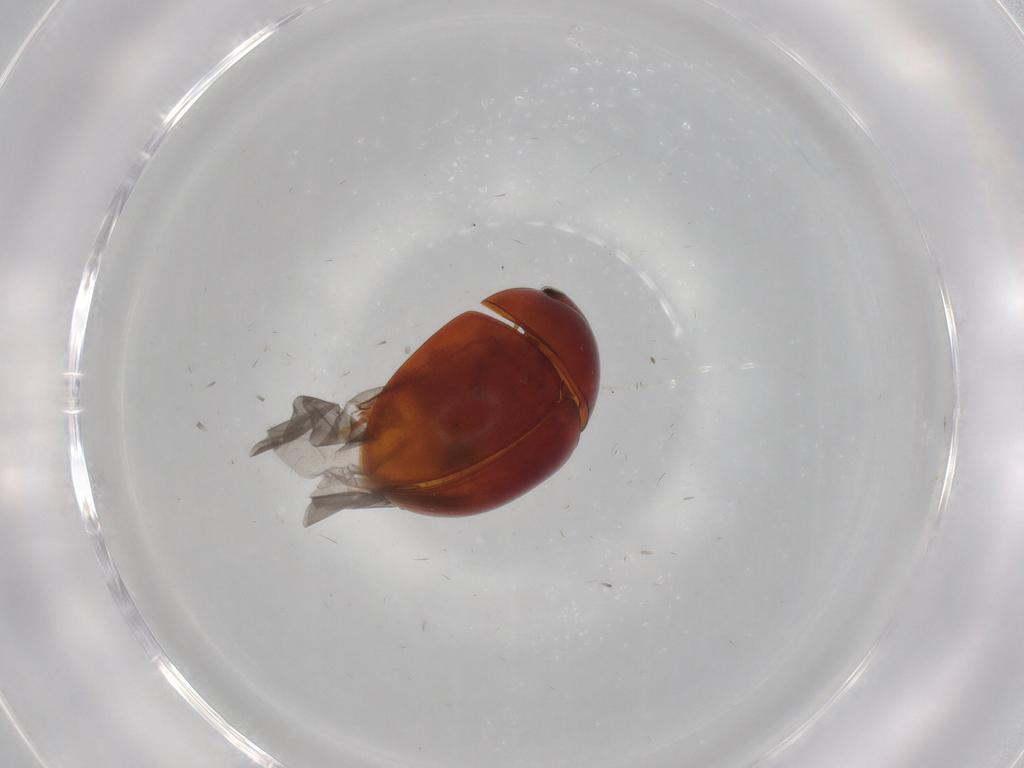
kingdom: Animalia
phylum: Arthropoda
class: Insecta
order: Coleoptera
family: Phalacridae
